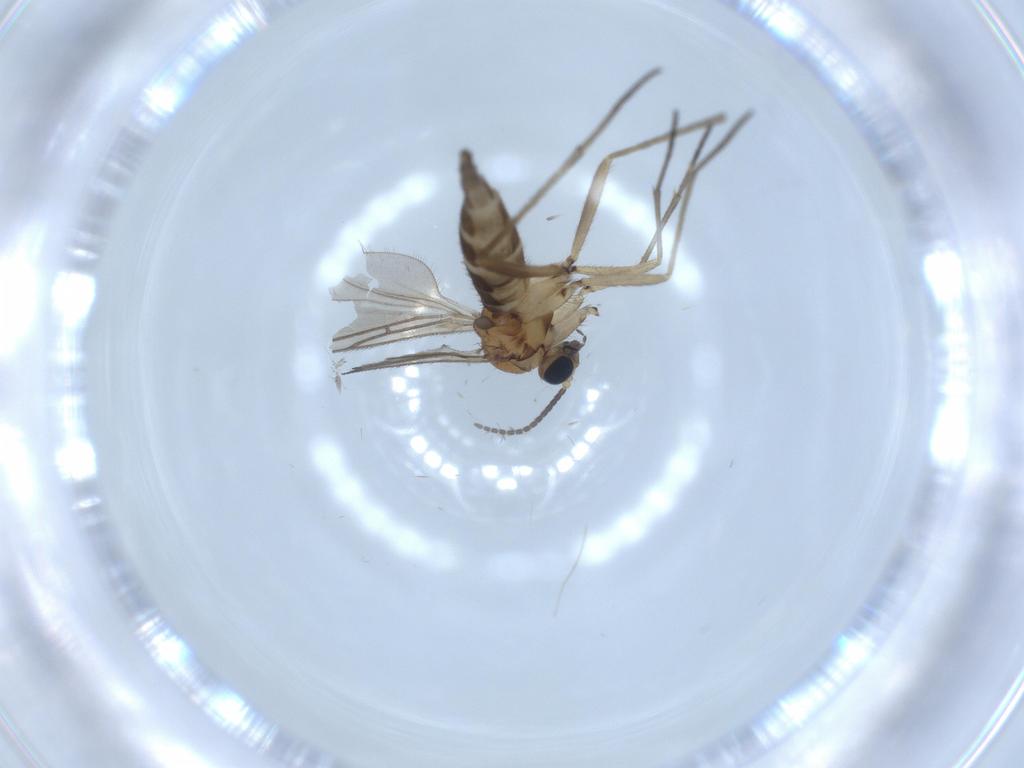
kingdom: Animalia
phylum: Arthropoda
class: Insecta
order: Diptera
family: Sciaridae
